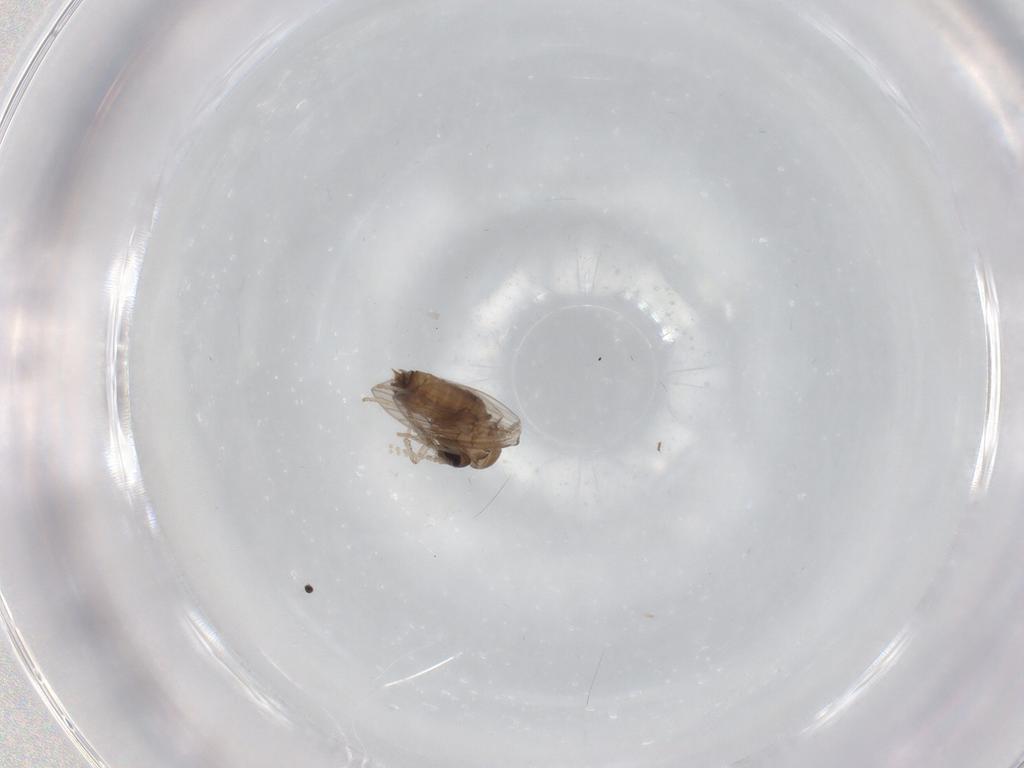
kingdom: Animalia
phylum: Arthropoda
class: Insecta
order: Diptera
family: Psychodidae
